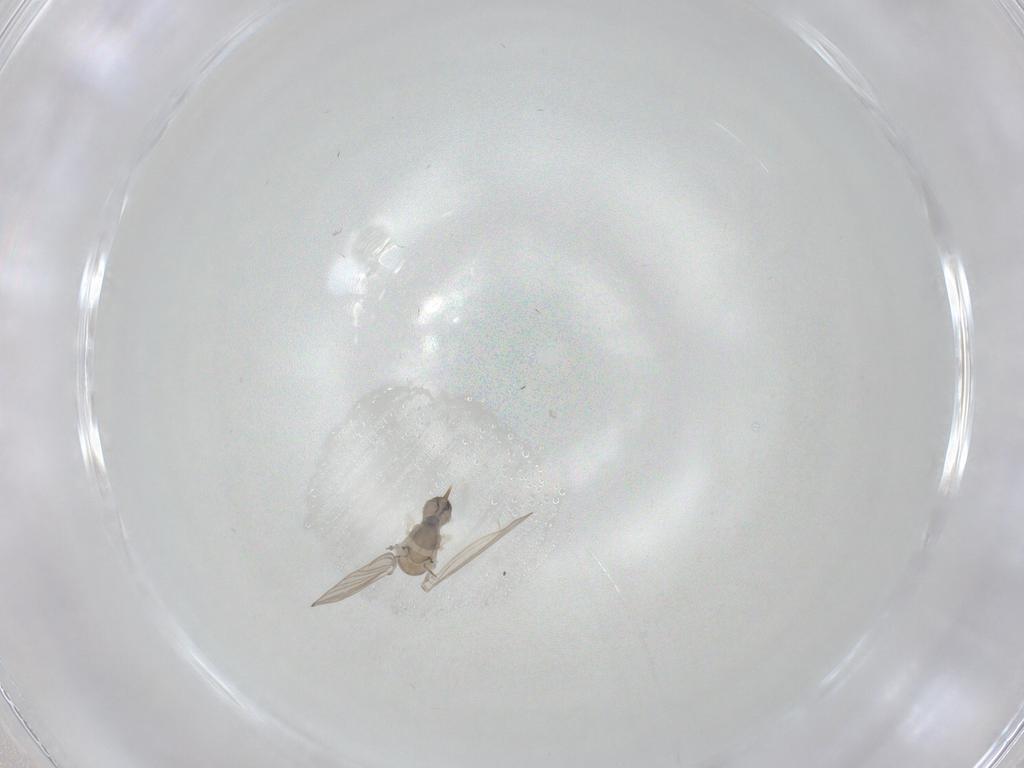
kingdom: Animalia
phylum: Arthropoda
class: Insecta
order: Diptera
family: Psychodidae
